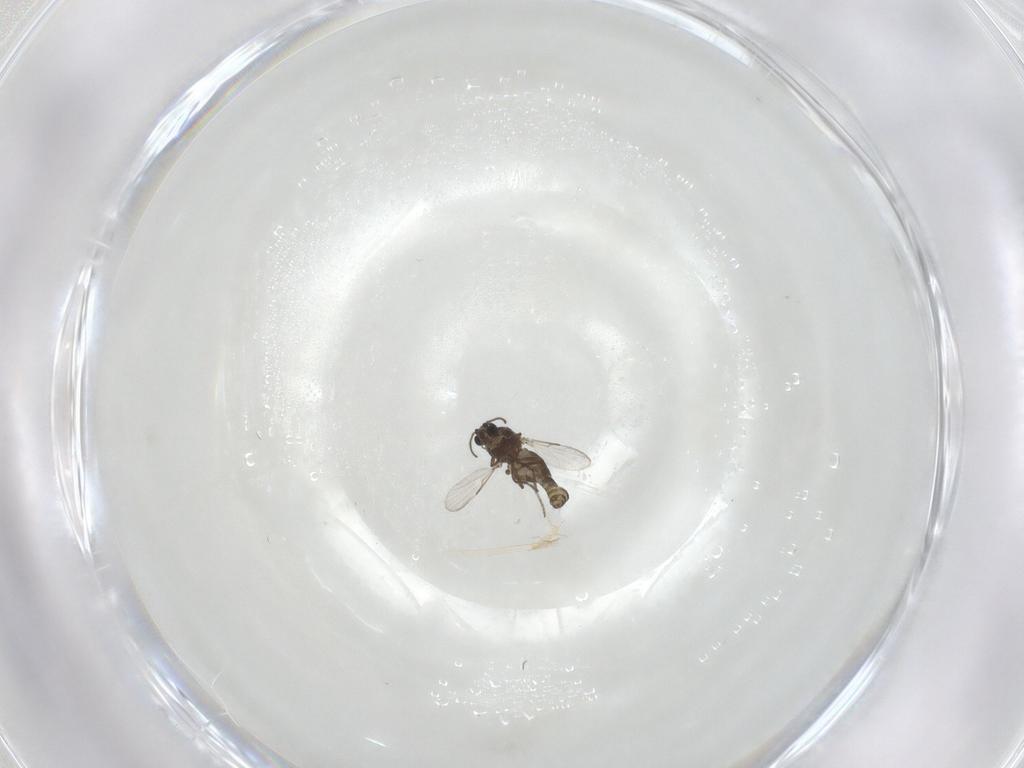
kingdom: Animalia
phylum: Arthropoda
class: Insecta
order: Diptera
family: Ceratopogonidae
